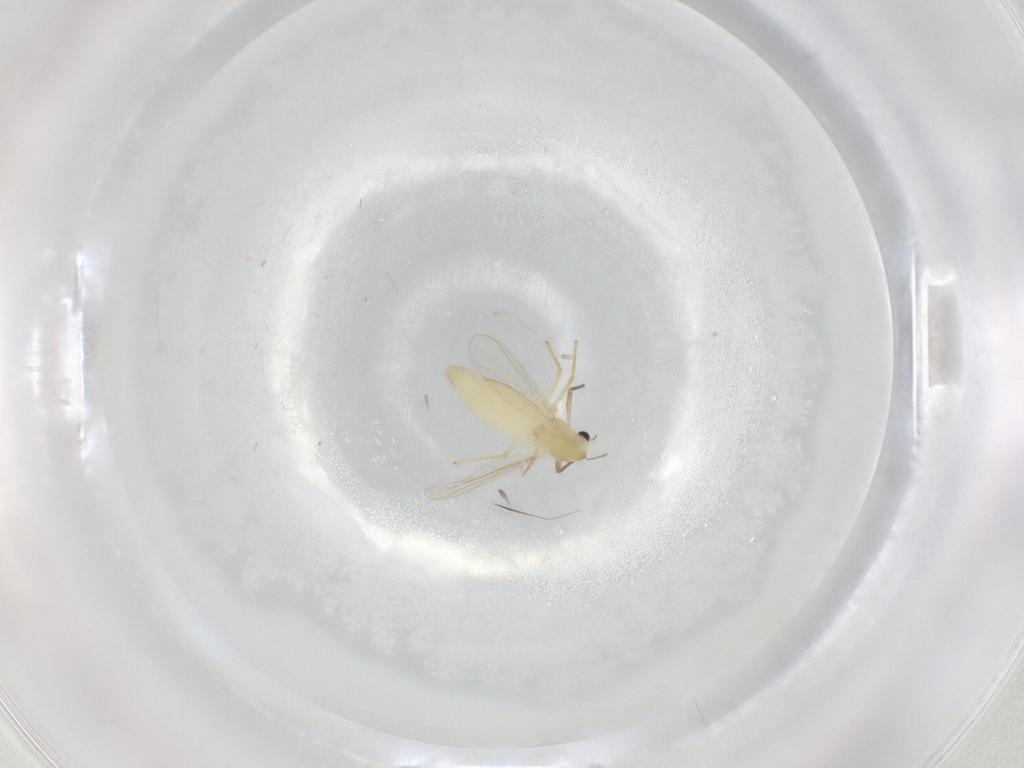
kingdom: Animalia
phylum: Arthropoda
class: Insecta
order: Diptera
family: Chironomidae
